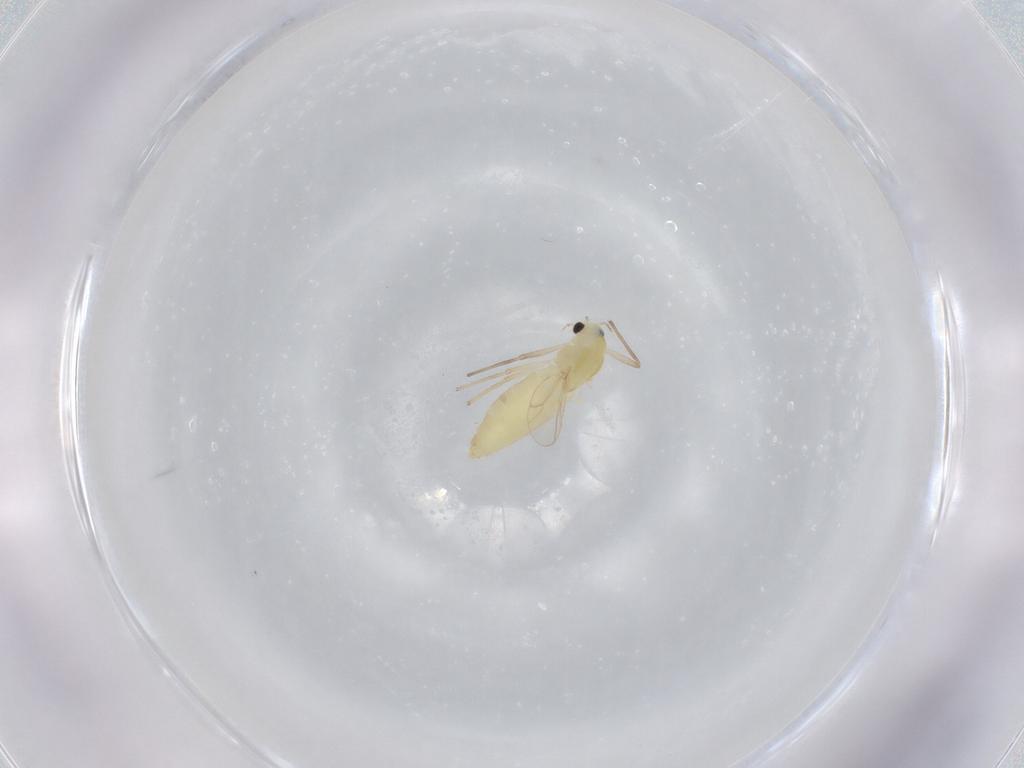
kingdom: Animalia
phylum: Arthropoda
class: Insecta
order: Diptera
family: Chironomidae
